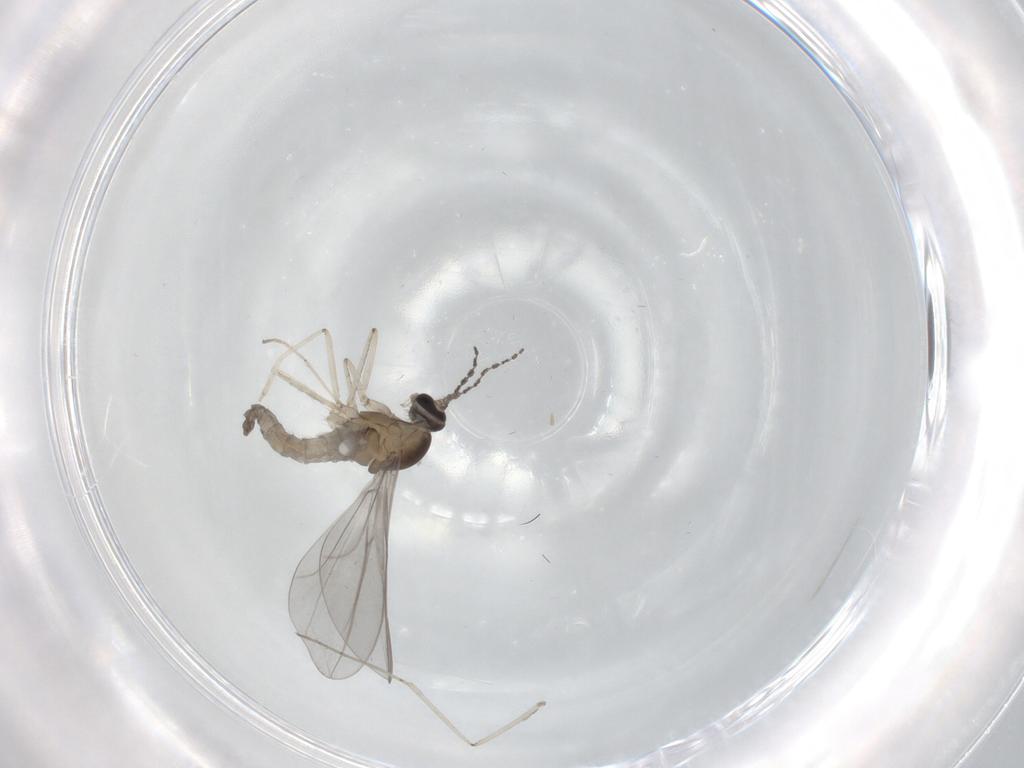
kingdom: Animalia
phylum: Arthropoda
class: Insecta
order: Diptera
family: Cecidomyiidae
